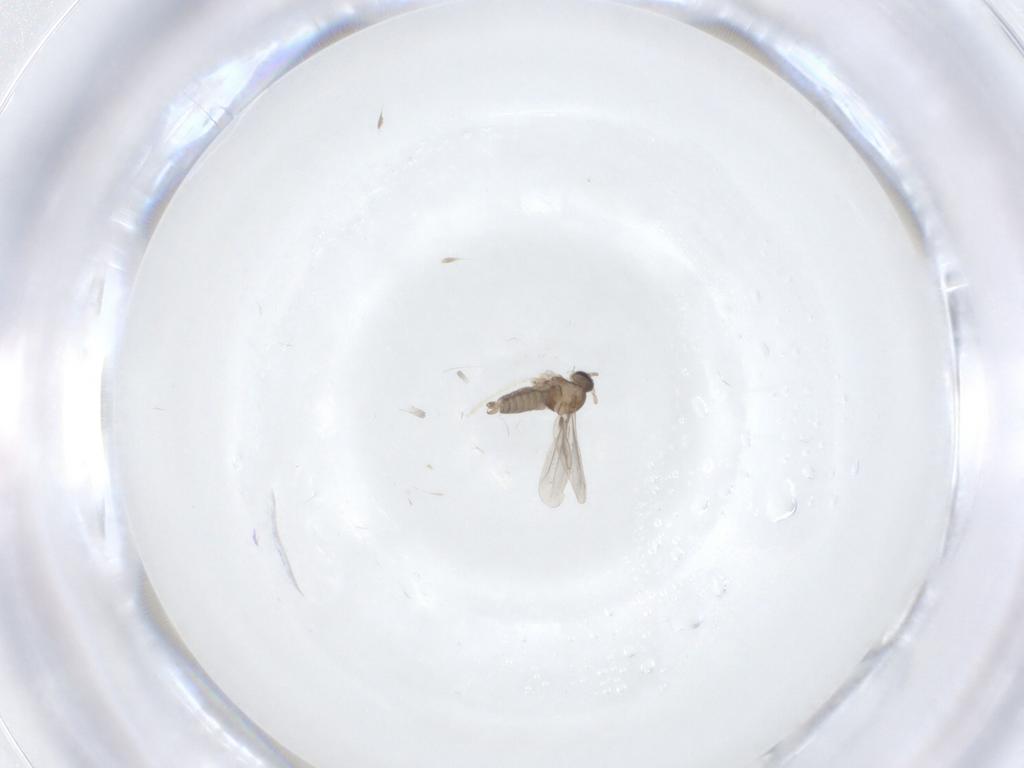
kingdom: Animalia
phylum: Arthropoda
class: Insecta
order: Diptera
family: Cecidomyiidae
